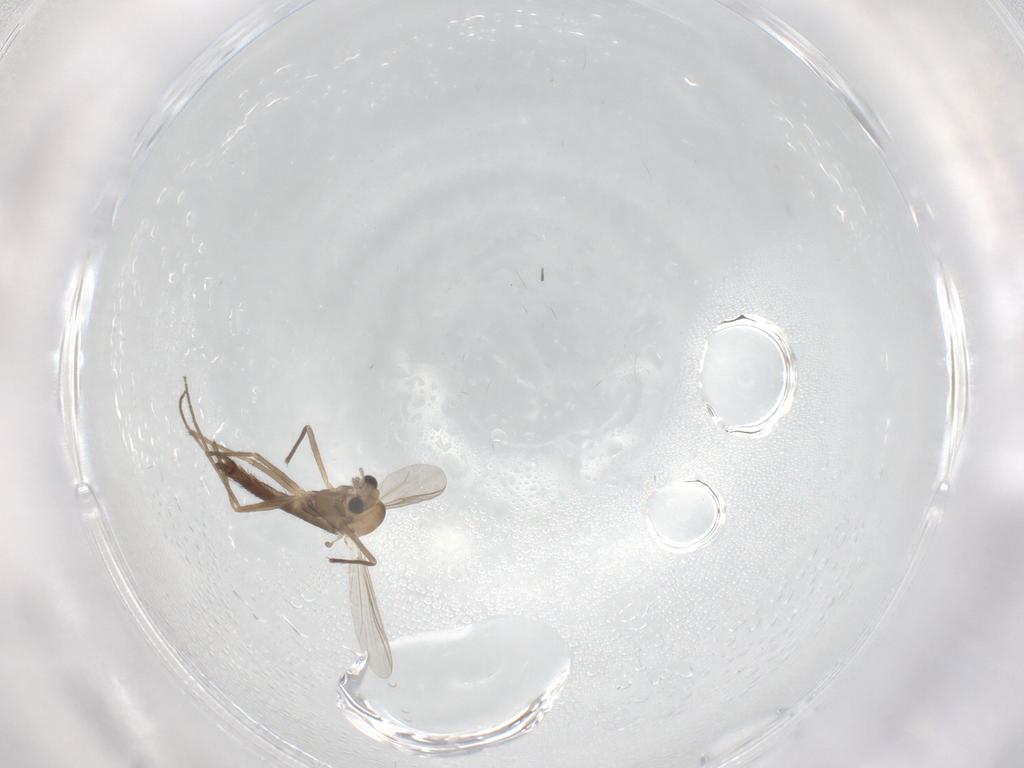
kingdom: Animalia
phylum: Arthropoda
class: Insecta
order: Diptera
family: Chironomidae
